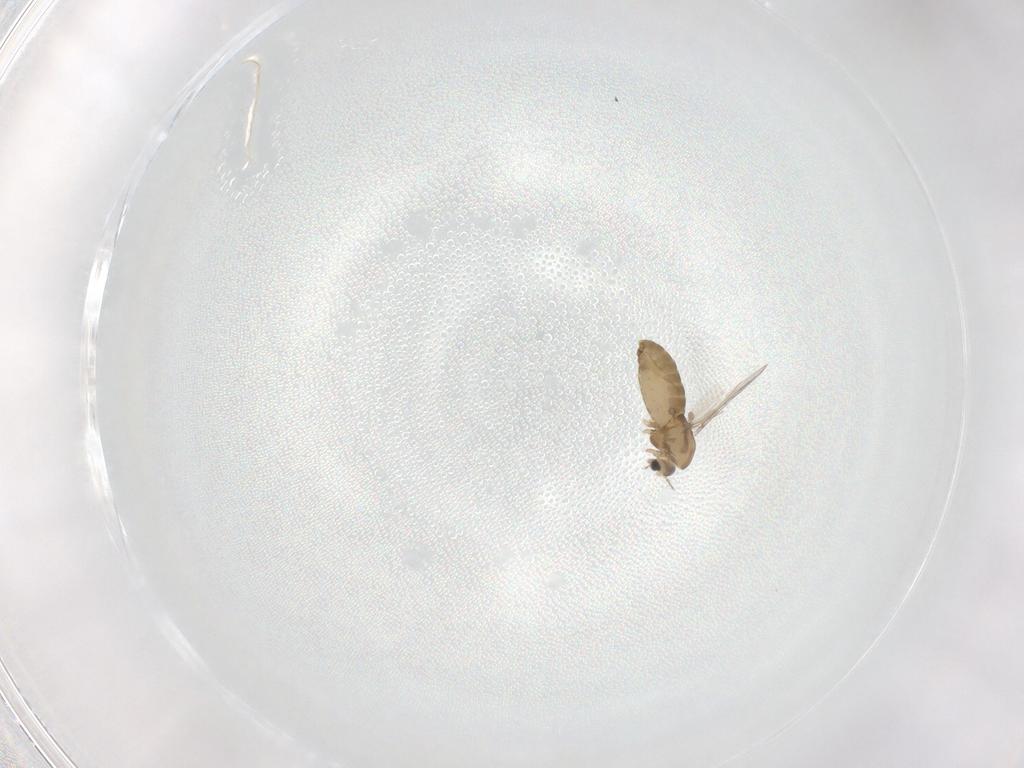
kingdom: Animalia
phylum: Arthropoda
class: Insecta
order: Diptera
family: Chironomidae
